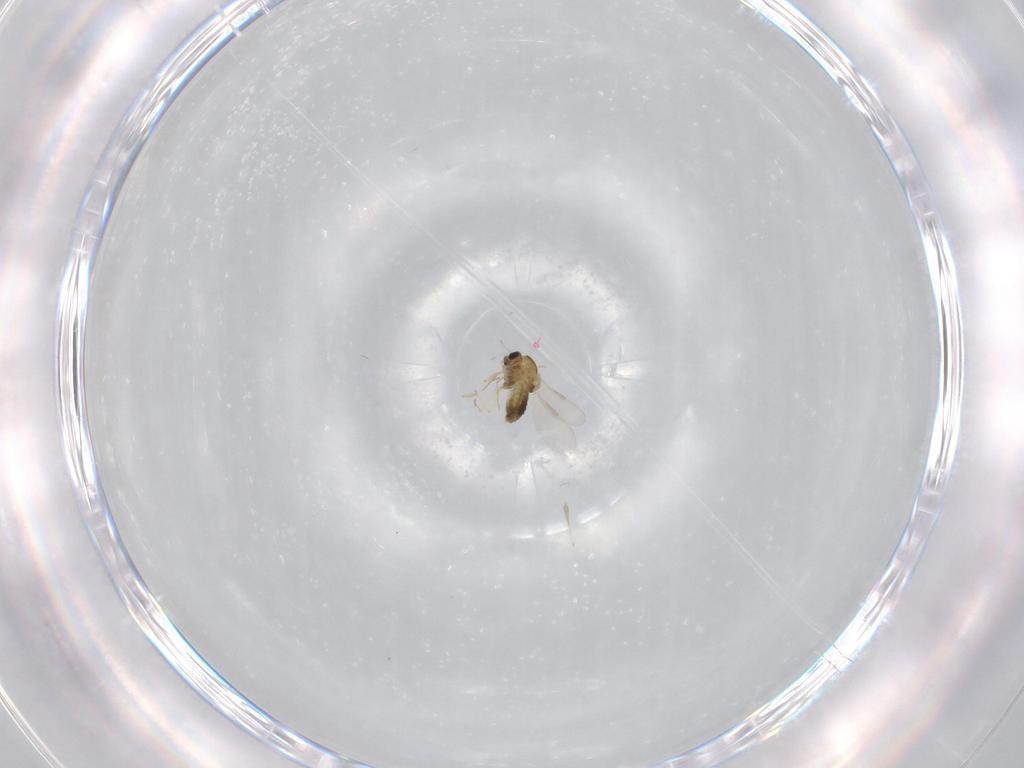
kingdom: Animalia
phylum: Arthropoda
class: Insecta
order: Diptera
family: Chironomidae
